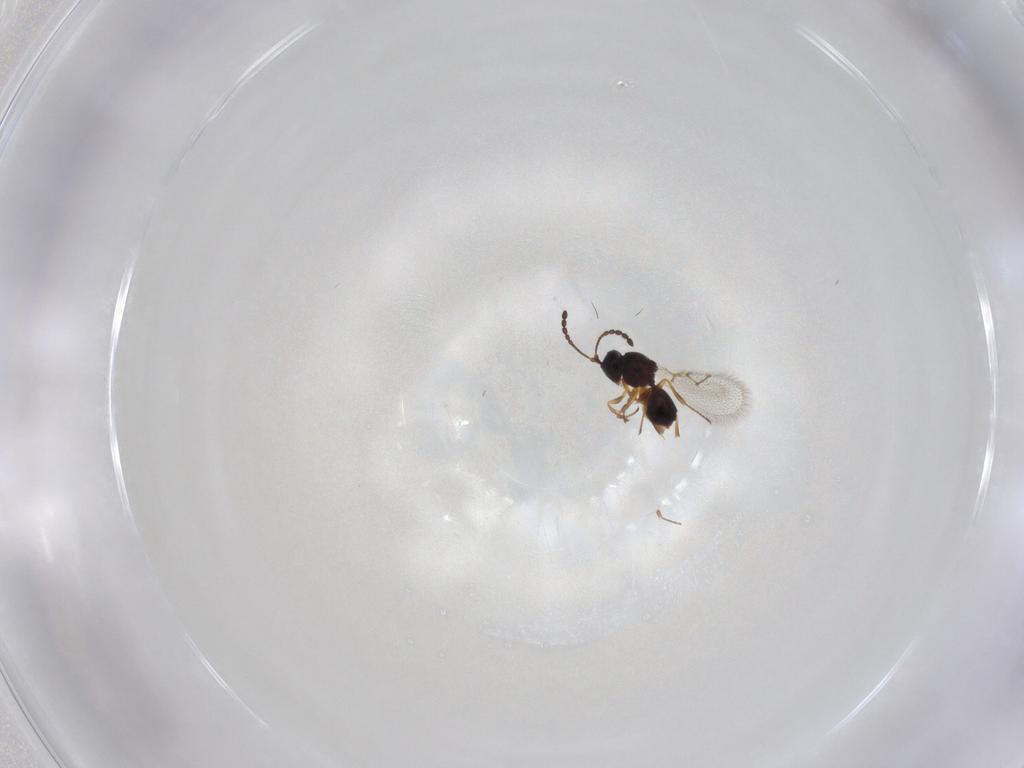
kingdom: Animalia
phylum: Arthropoda
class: Insecta
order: Hymenoptera
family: Figitidae
